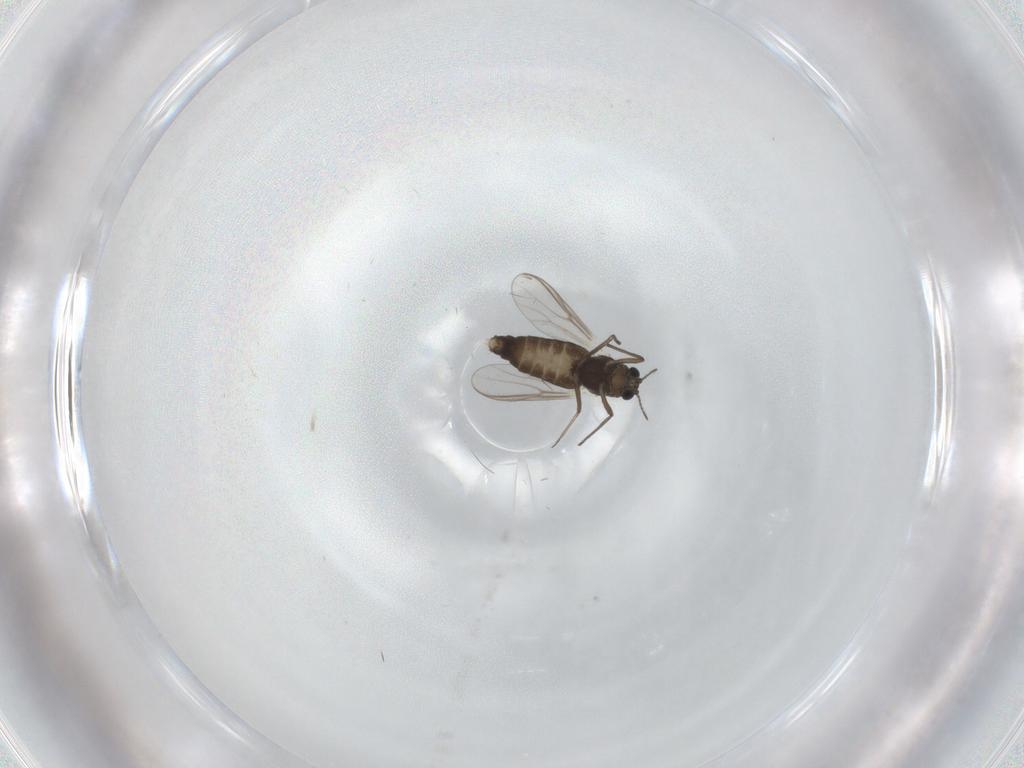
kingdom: Animalia
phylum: Arthropoda
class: Insecta
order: Diptera
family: Chironomidae
